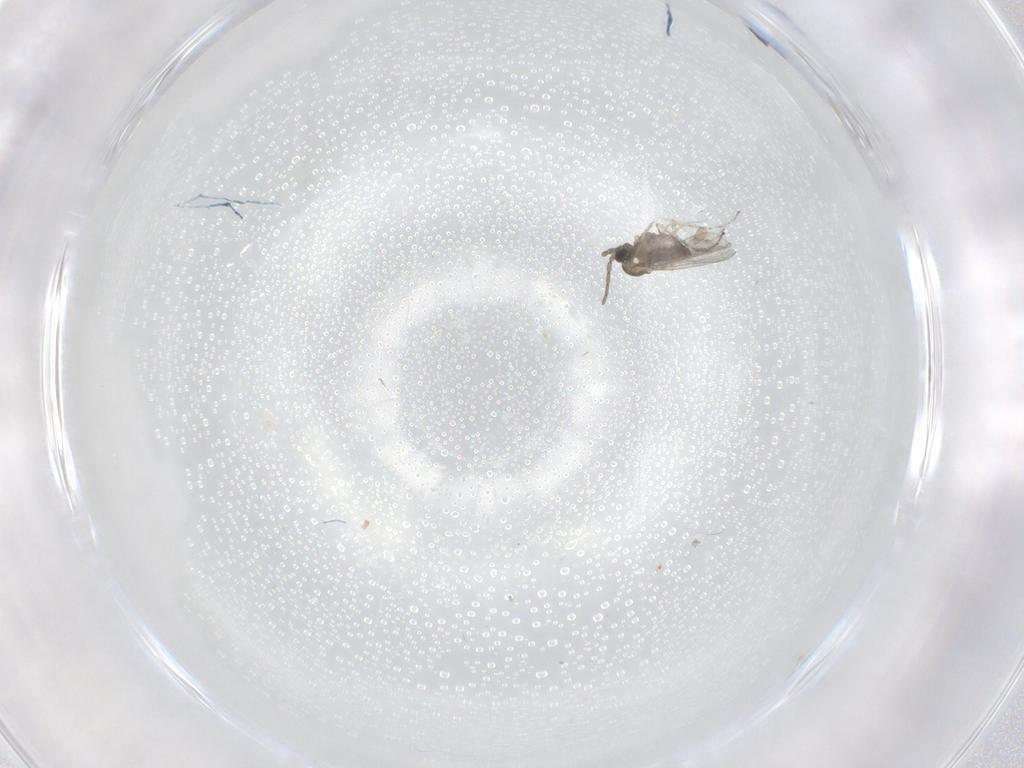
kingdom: Animalia
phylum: Arthropoda
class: Insecta
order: Diptera
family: Cecidomyiidae
